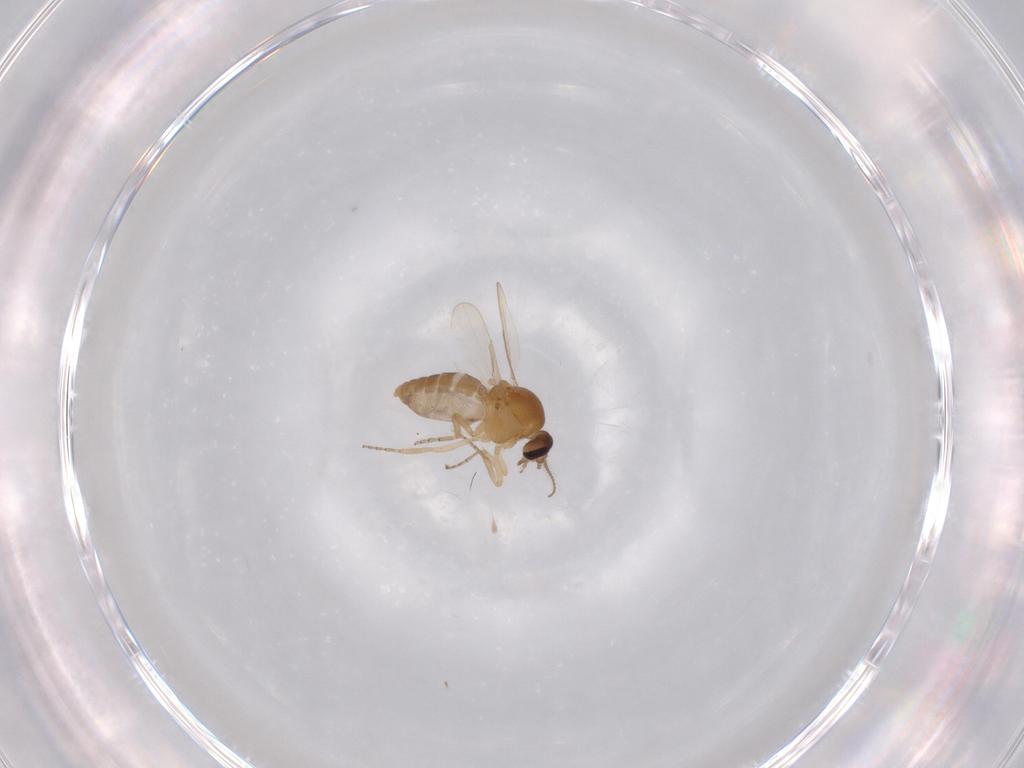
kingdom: Animalia
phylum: Arthropoda
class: Insecta
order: Diptera
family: Ceratopogonidae
